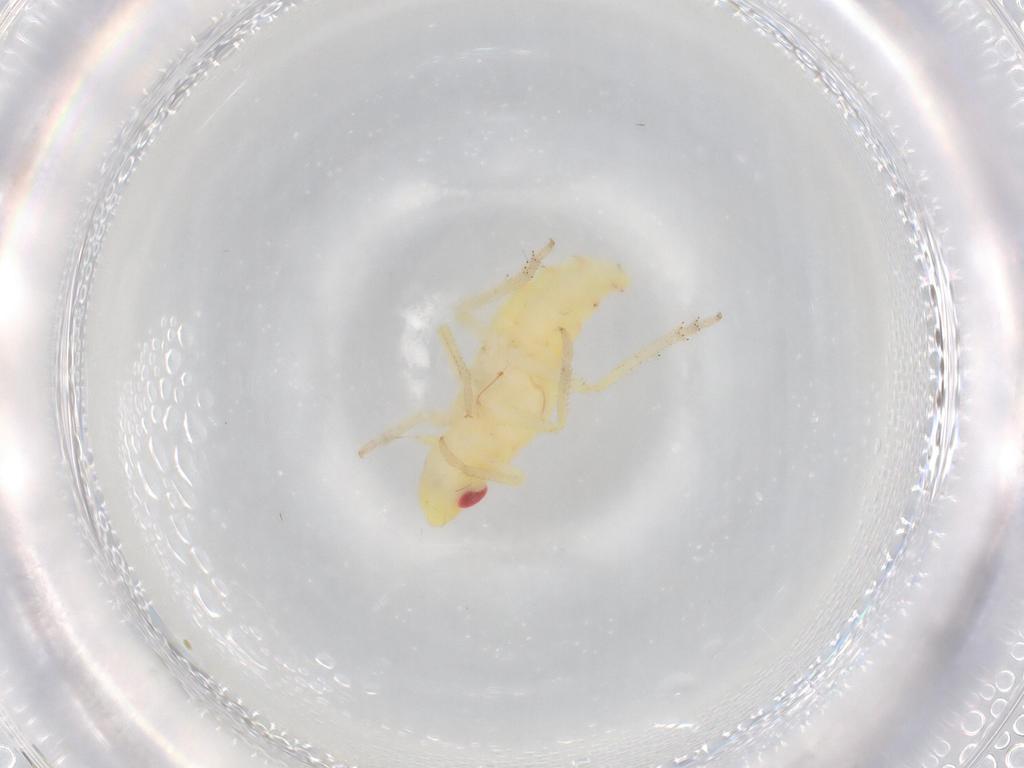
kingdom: Animalia
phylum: Arthropoda
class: Insecta
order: Hemiptera
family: Tropiduchidae
